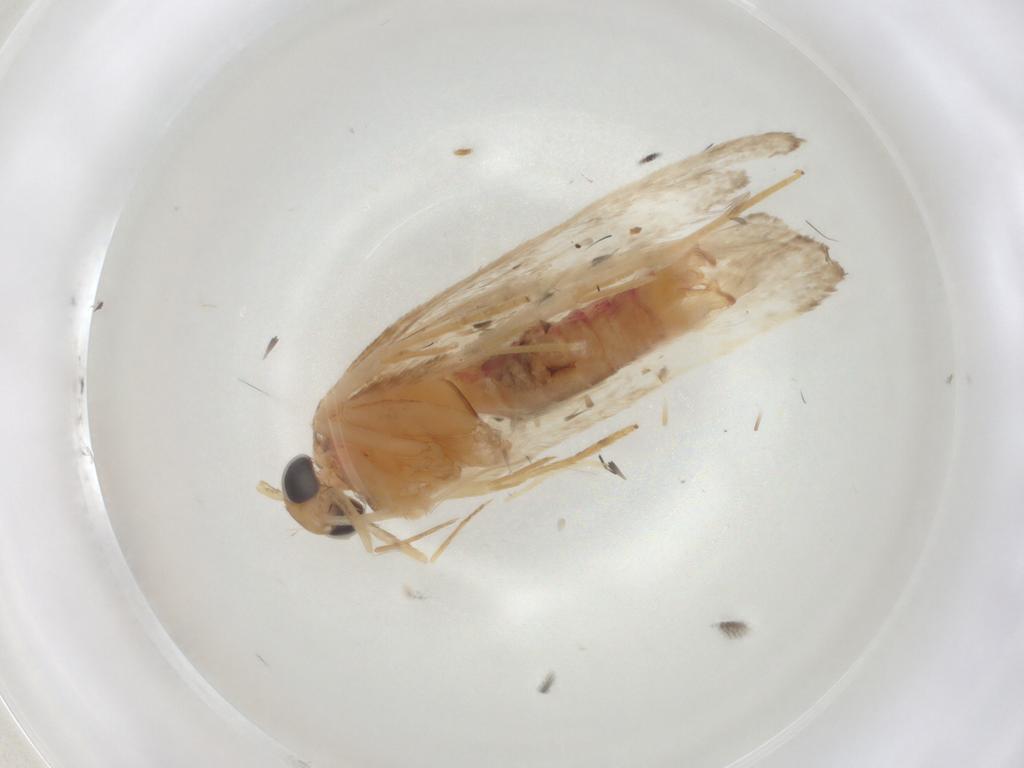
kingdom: Animalia
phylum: Arthropoda
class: Insecta
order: Lepidoptera
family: Lecithoceridae
